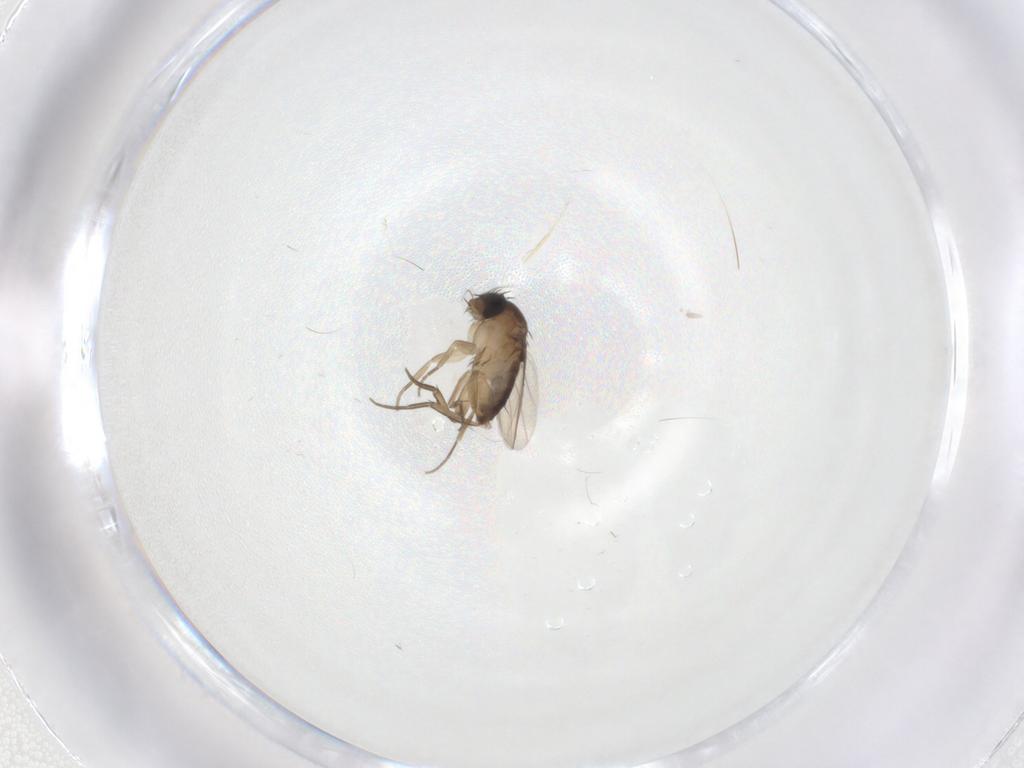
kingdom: Animalia
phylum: Arthropoda
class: Insecta
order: Diptera
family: Phoridae
